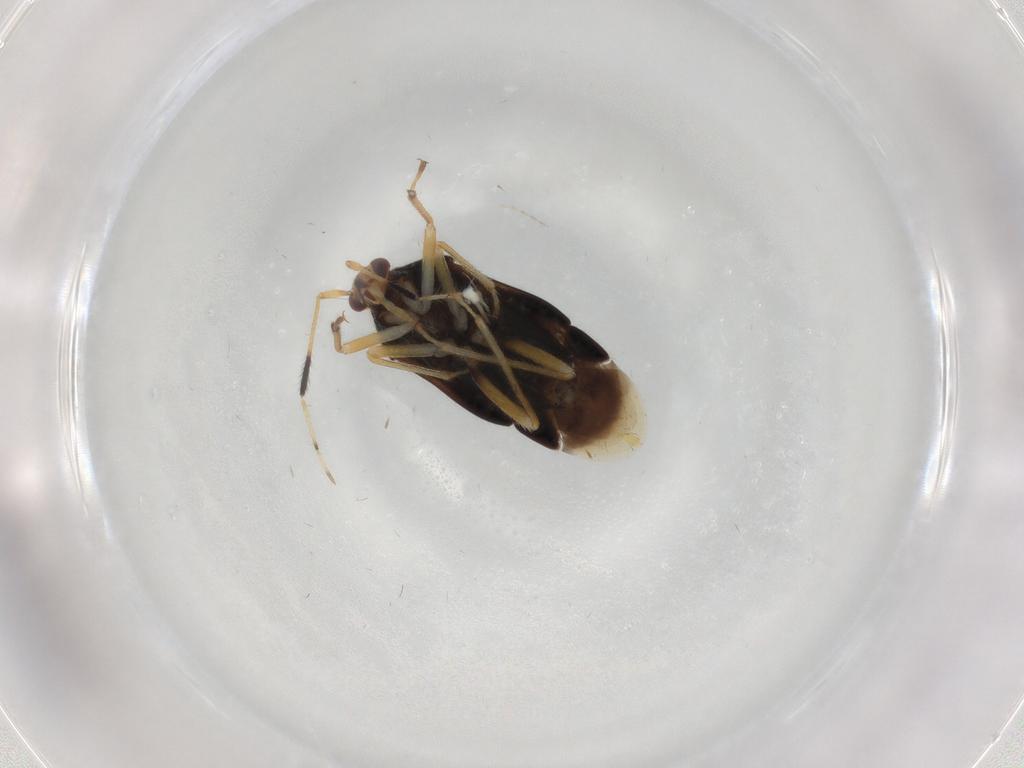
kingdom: Animalia
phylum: Arthropoda
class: Insecta
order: Hemiptera
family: Miridae
